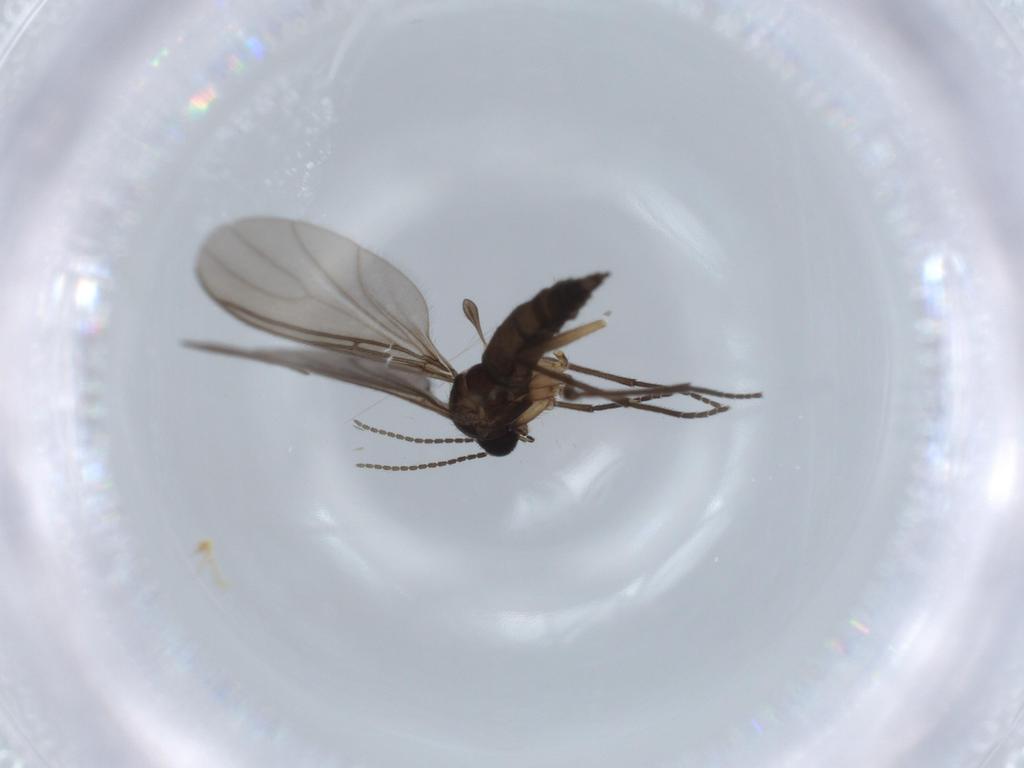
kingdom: Animalia
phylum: Arthropoda
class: Insecta
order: Diptera
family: Sciaridae
